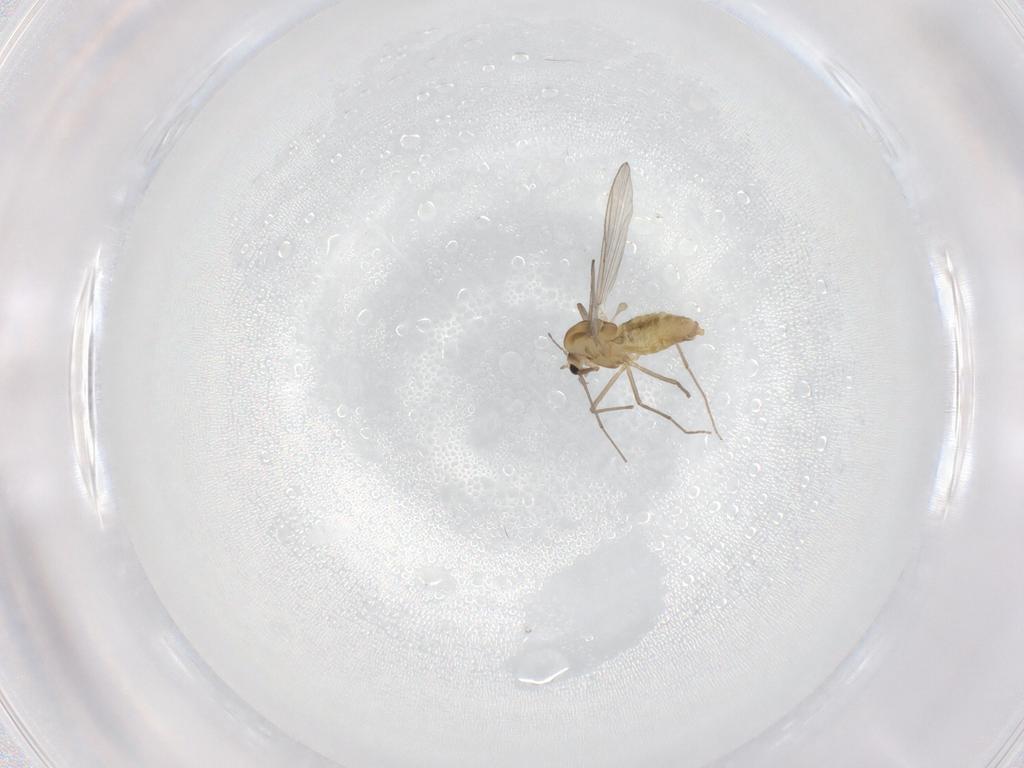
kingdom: Animalia
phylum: Arthropoda
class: Insecta
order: Diptera
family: Chironomidae
